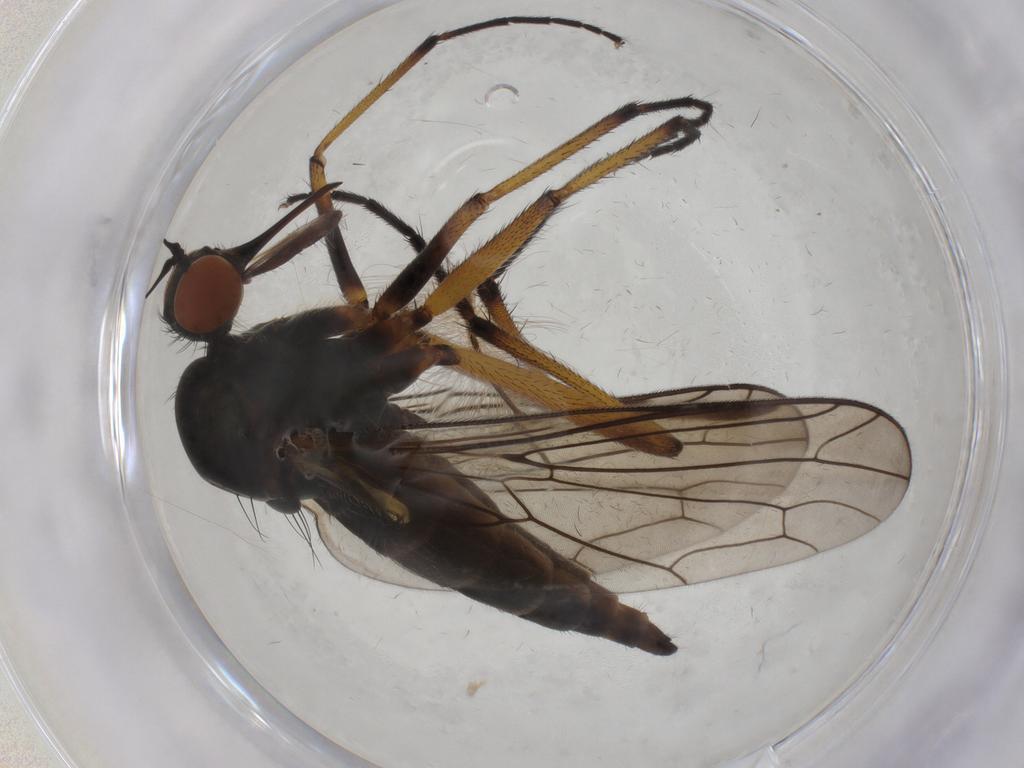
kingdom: Animalia
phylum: Arthropoda
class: Insecta
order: Diptera
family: Empididae
